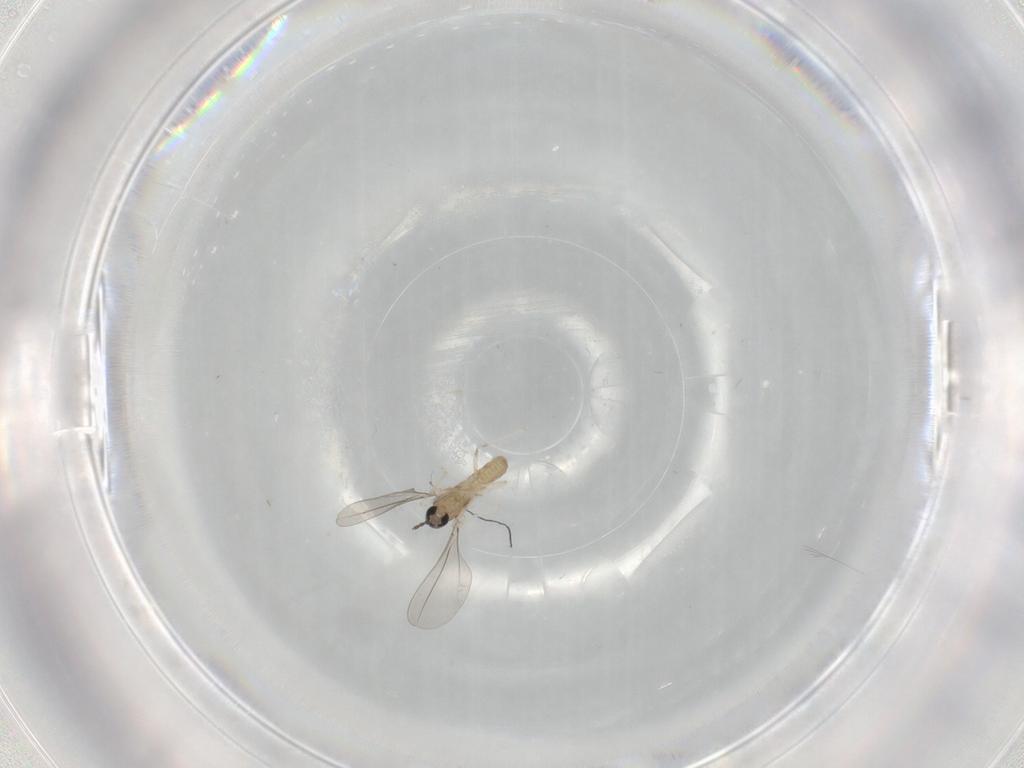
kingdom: Animalia
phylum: Arthropoda
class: Insecta
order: Diptera
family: Cecidomyiidae
